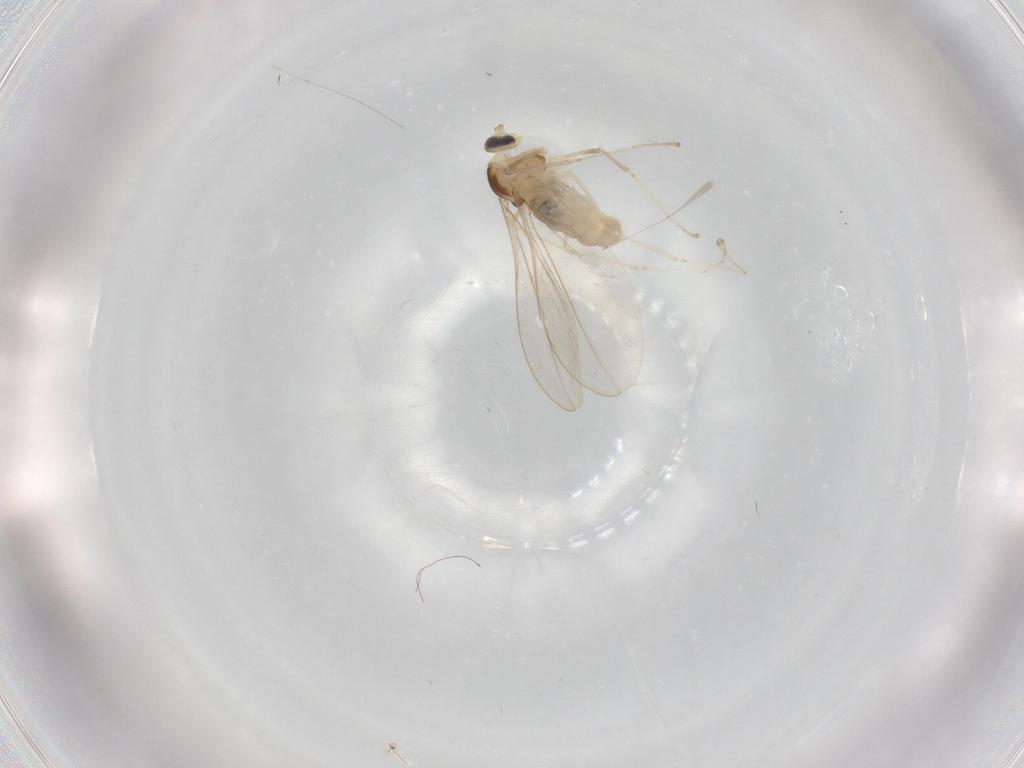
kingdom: Animalia
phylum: Arthropoda
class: Insecta
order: Diptera
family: Cecidomyiidae
